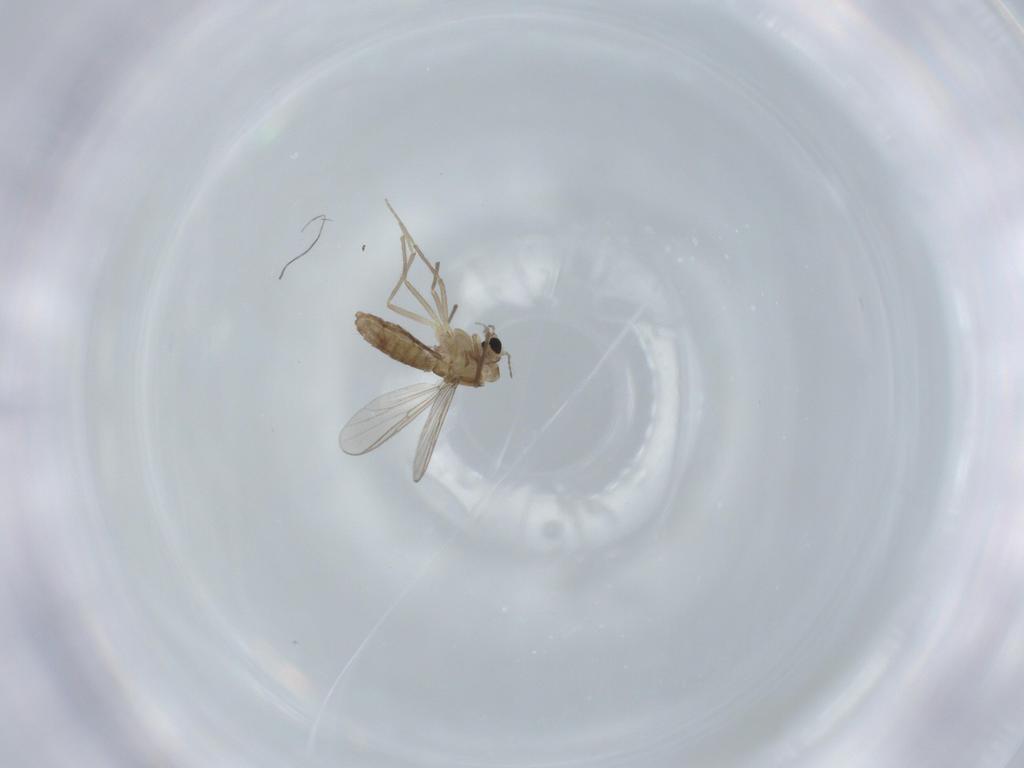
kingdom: Animalia
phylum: Arthropoda
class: Insecta
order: Diptera
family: Chironomidae
